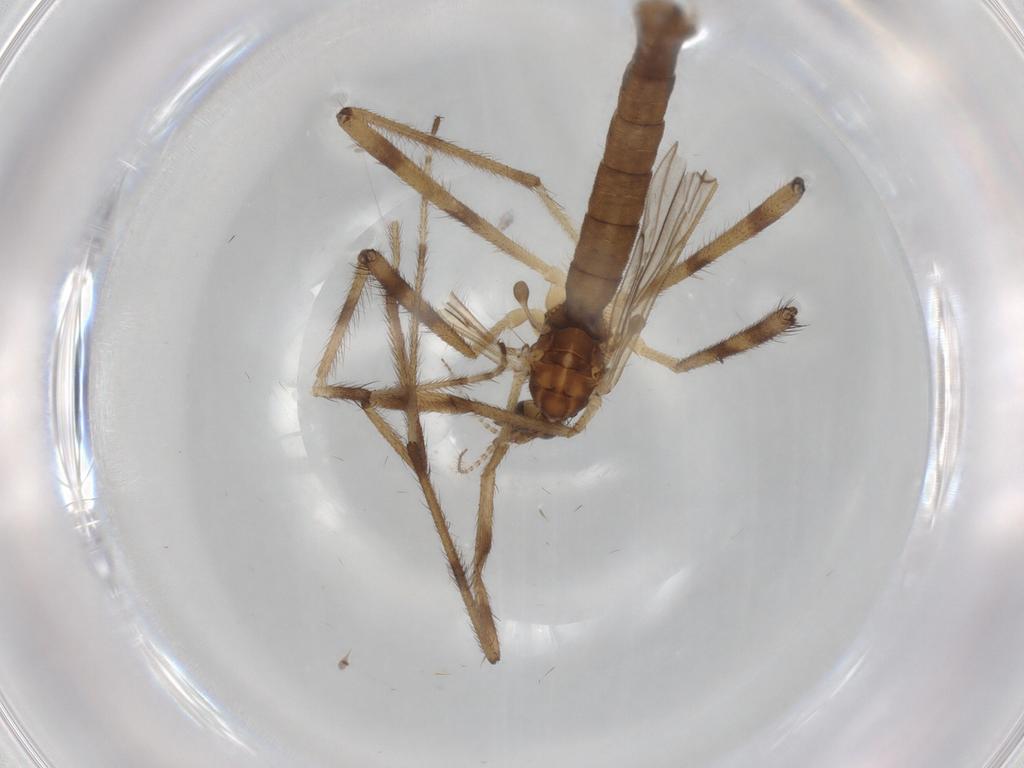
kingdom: Animalia
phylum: Arthropoda
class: Insecta
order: Diptera
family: Limoniidae
